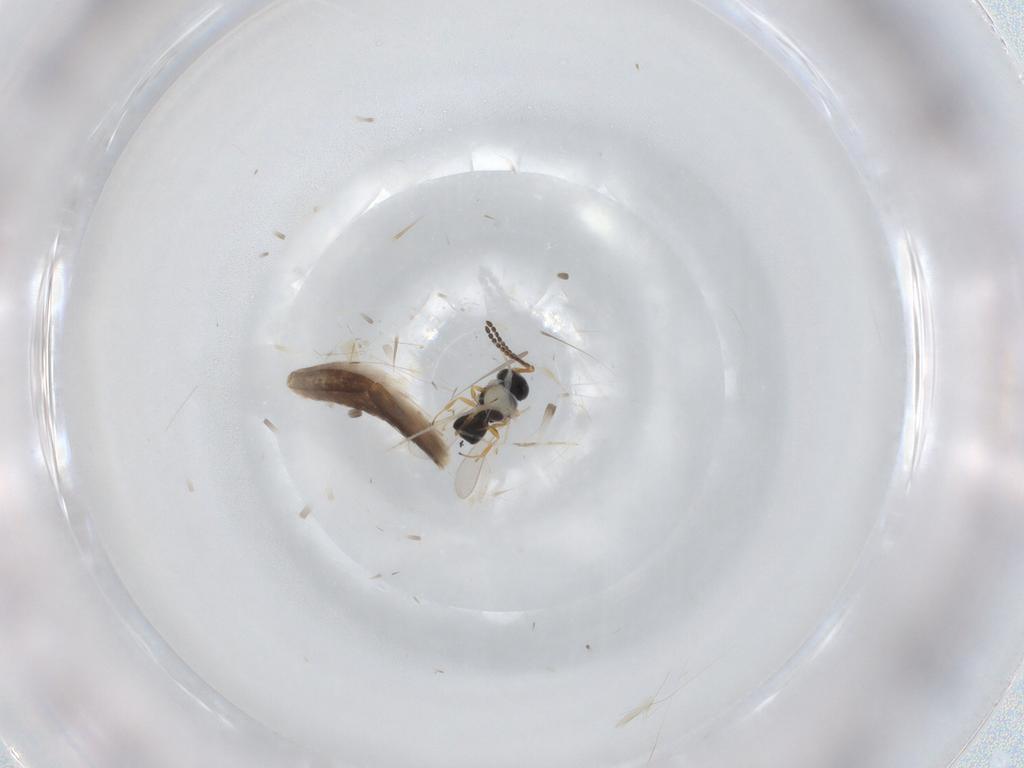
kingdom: Animalia
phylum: Arthropoda
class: Insecta
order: Hymenoptera
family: Scelionidae
